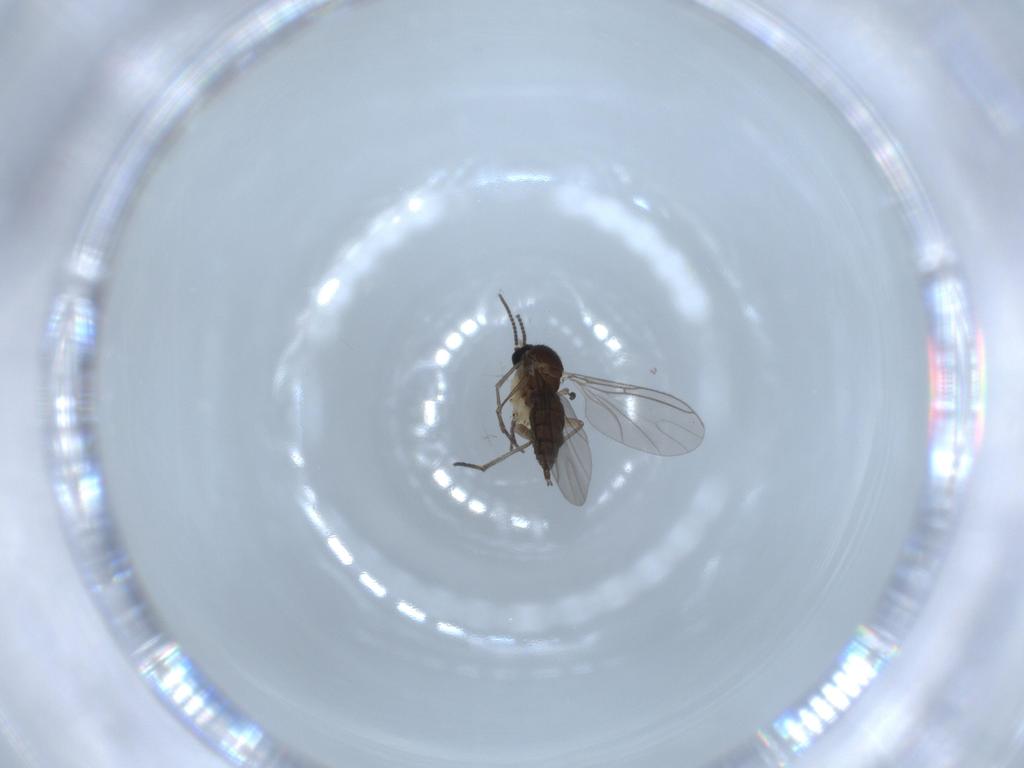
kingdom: Animalia
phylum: Arthropoda
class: Insecta
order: Diptera
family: Sciaridae
